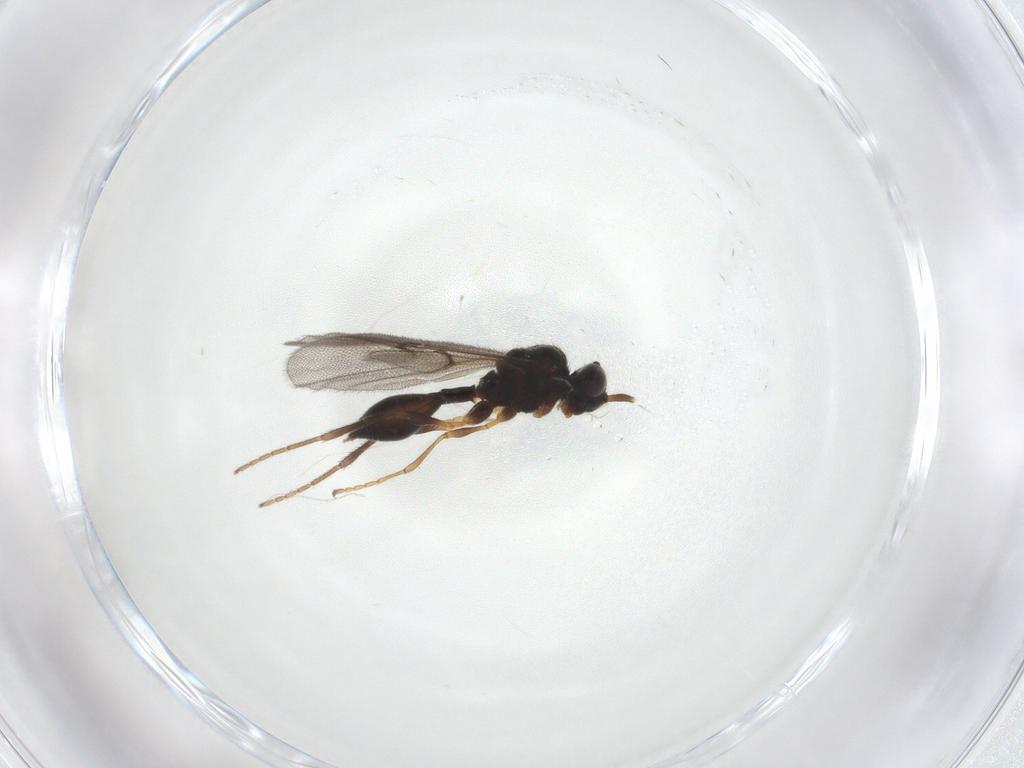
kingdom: Animalia
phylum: Arthropoda
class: Insecta
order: Hymenoptera
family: Diapriidae
